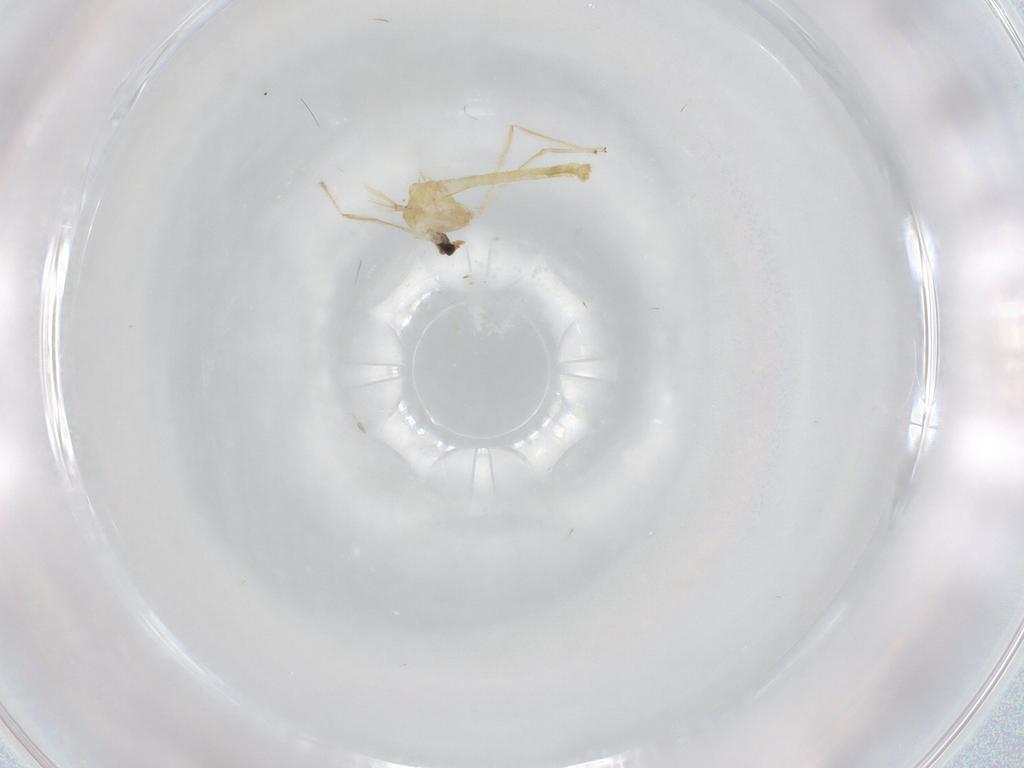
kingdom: Animalia
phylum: Arthropoda
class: Insecta
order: Diptera
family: Chironomidae
